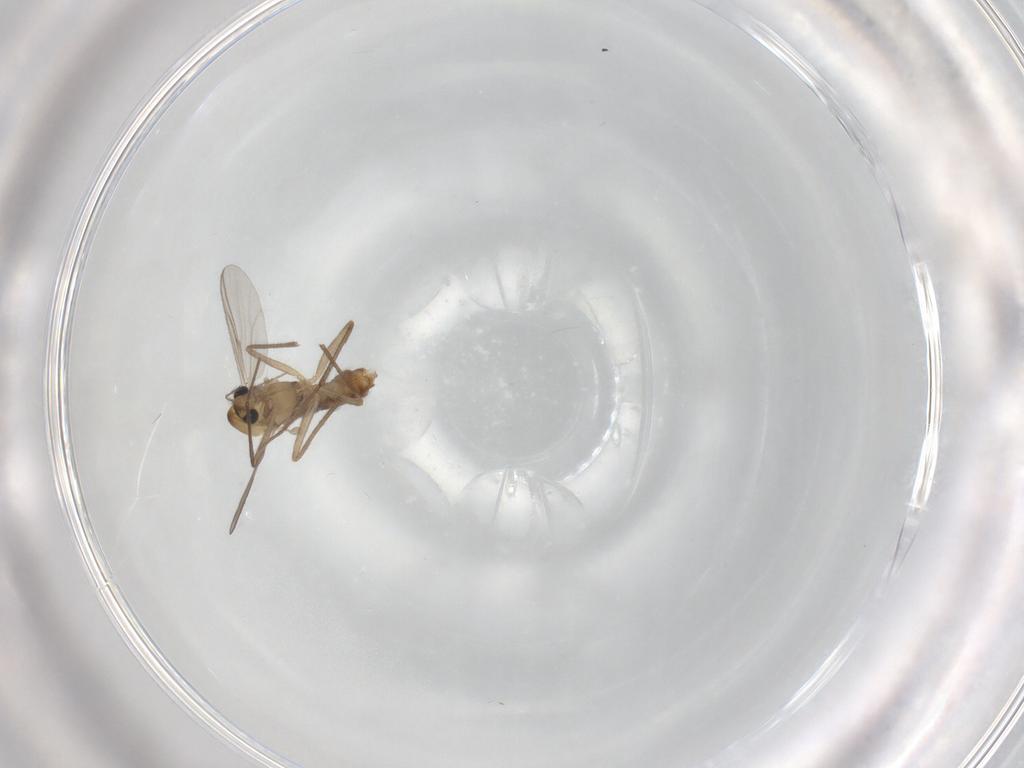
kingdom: Animalia
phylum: Arthropoda
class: Insecta
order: Diptera
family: Chironomidae
